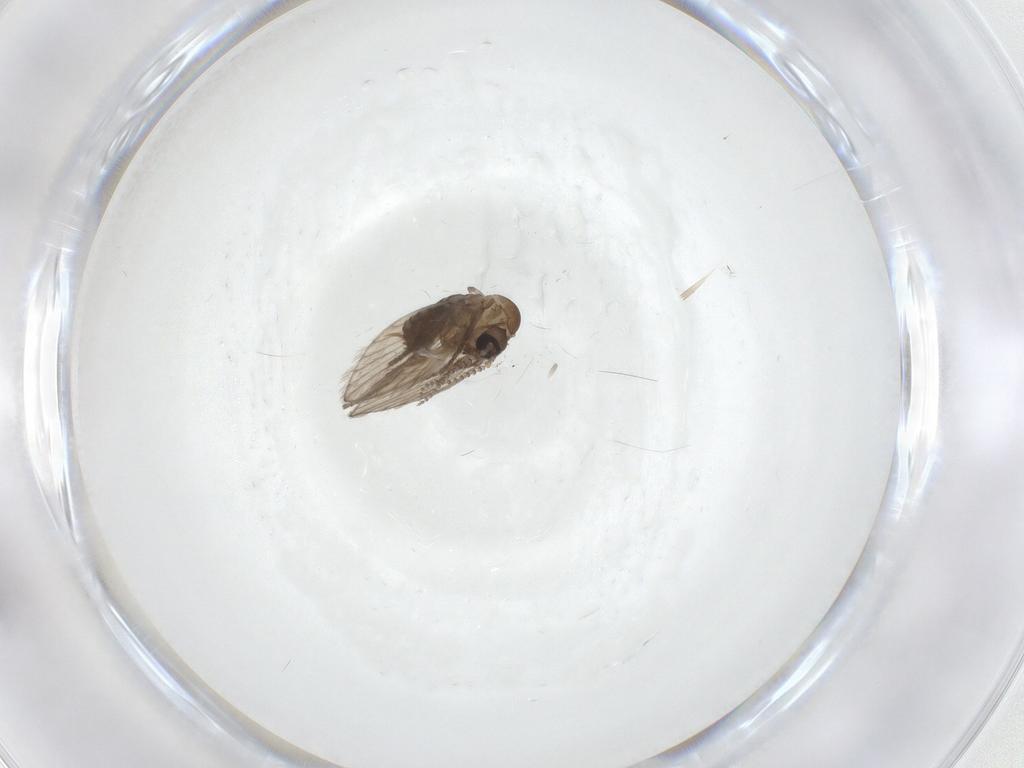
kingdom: Animalia
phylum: Arthropoda
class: Insecta
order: Diptera
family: Psychodidae
